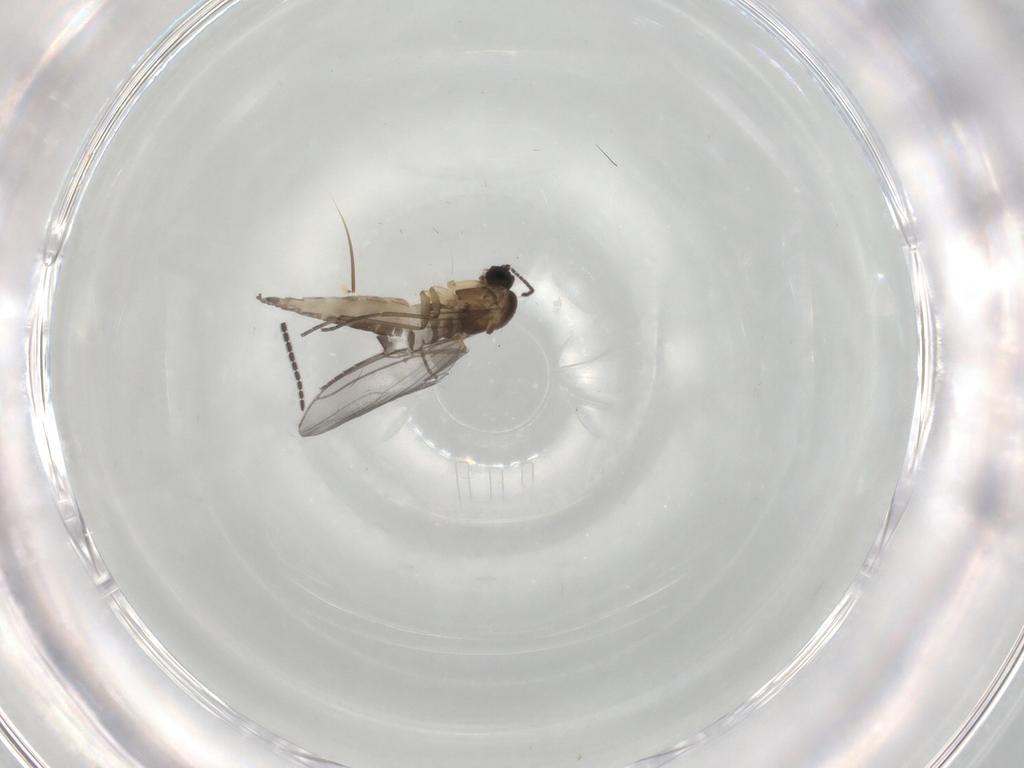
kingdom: Animalia
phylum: Arthropoda
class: Insecta
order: Diptera
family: Sciaridae
